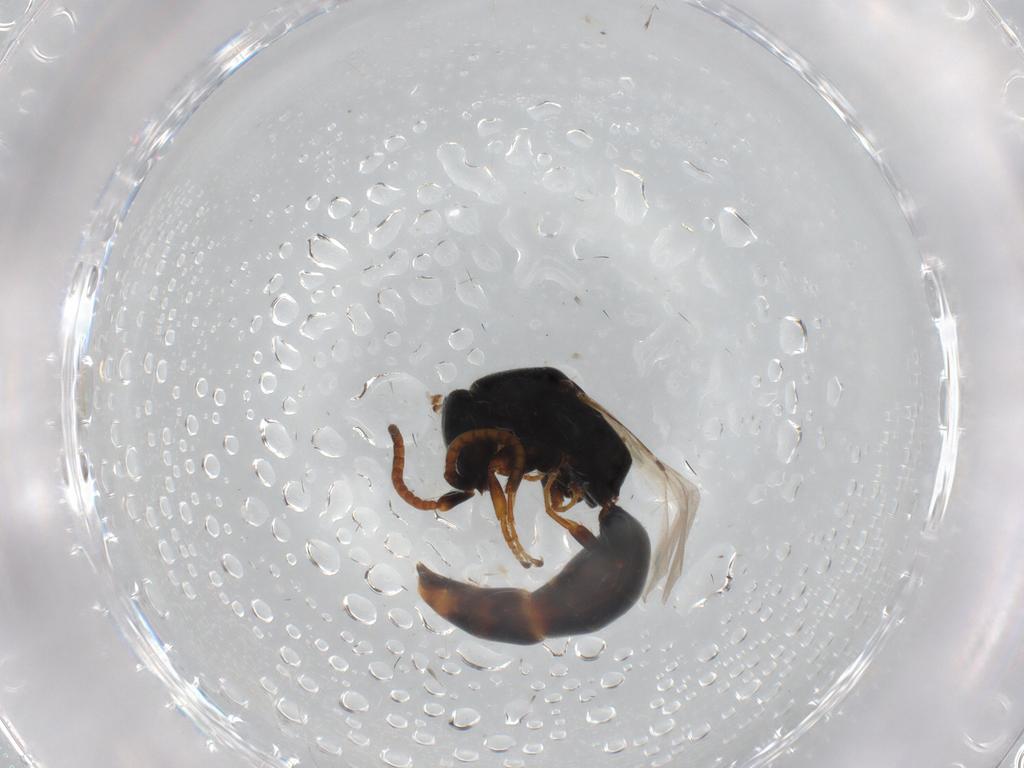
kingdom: Animalia
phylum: Arthropoda
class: Insecta
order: Hymenoptera
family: Bethylidae
